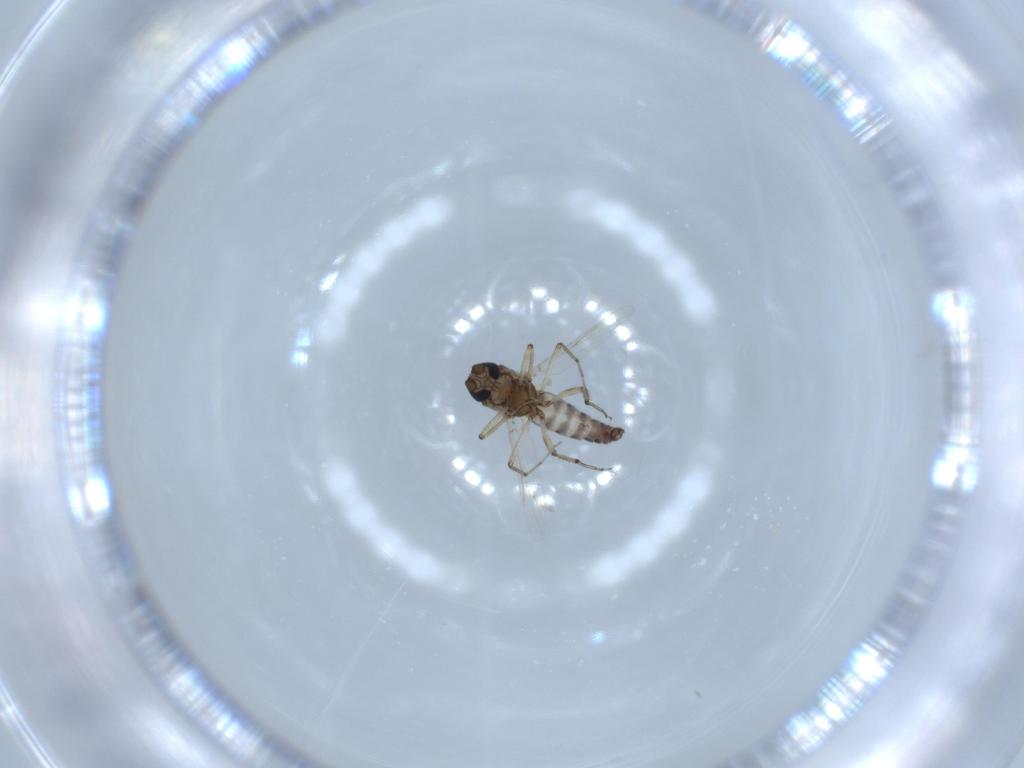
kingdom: Animalia
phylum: Arthropoda
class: Insecta
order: Diptera
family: Ceratopogonidae
